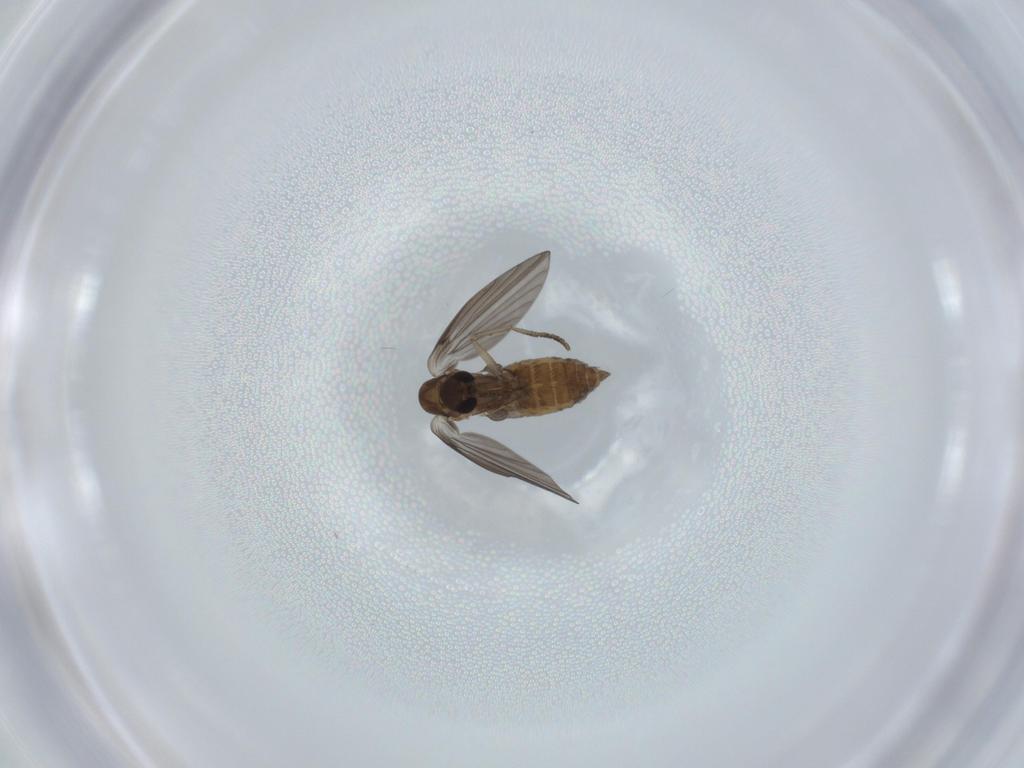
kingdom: Animalia
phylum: Arthropoda
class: Insecta
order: Diptera
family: Psychodidae
